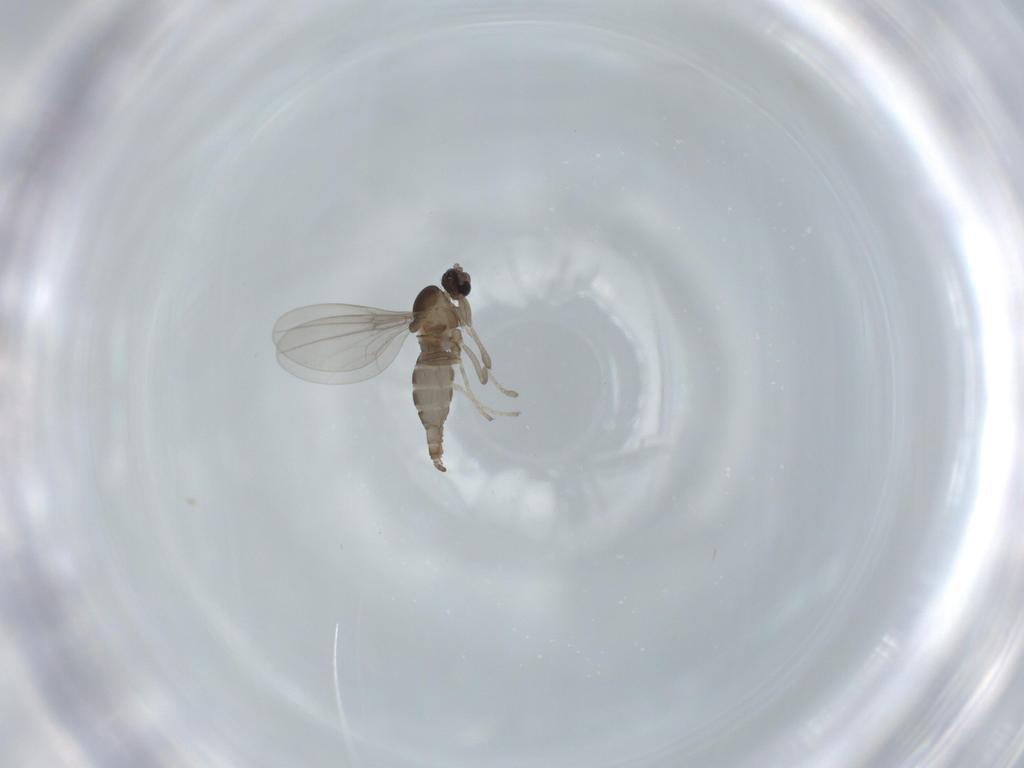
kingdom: Animalia
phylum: Arthropoda
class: Insecta
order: Diptera
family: Cecidomyiidae
